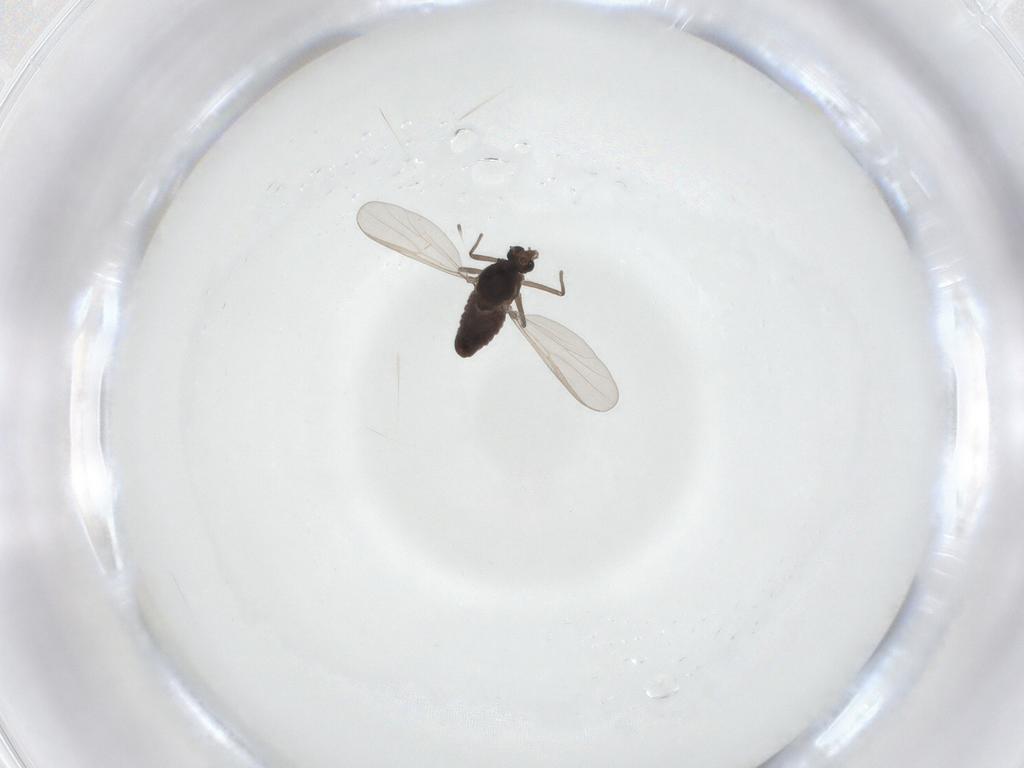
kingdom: Animalia
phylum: Arthropoda
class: Insecta
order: Diptera
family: Chironomidae
